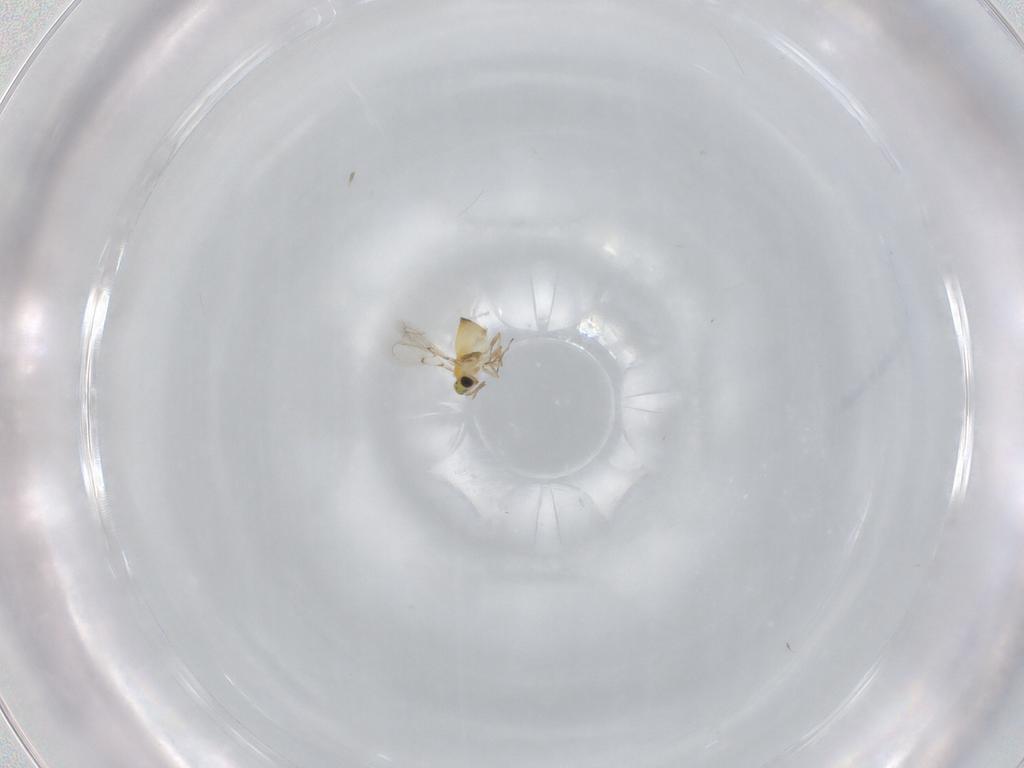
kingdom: Animalia
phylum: Arthropoda
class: Insecta
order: Hymenoptera
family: Trichogrammatidae
